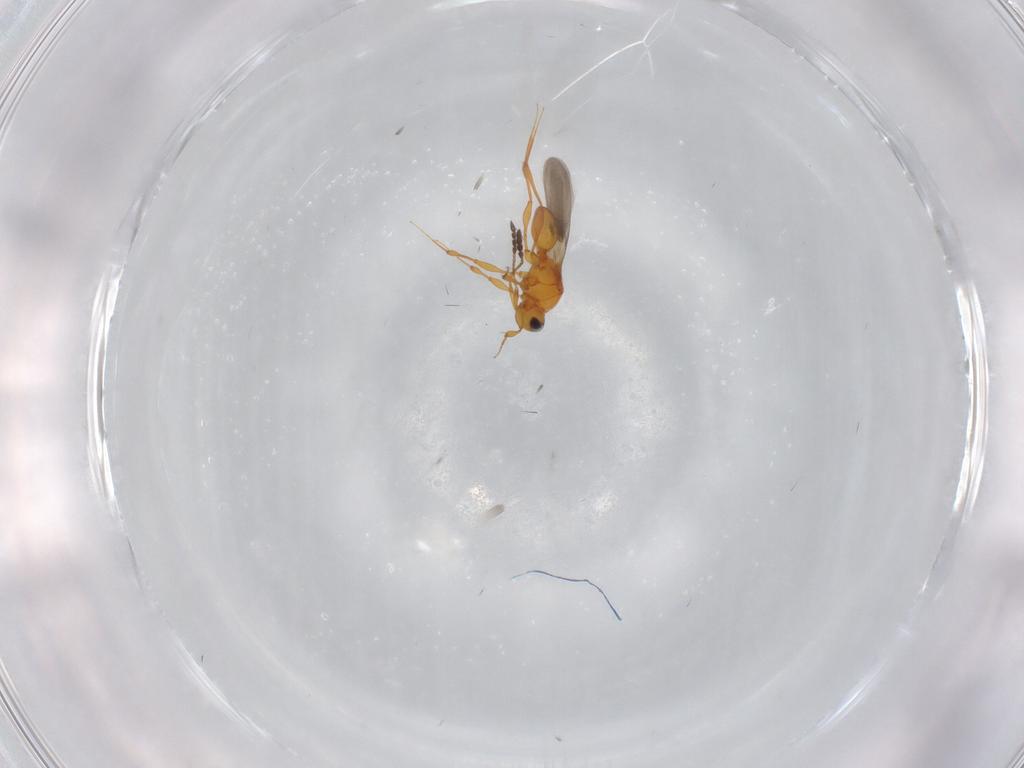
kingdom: Animalia
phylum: Arthropoda
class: Insecta
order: Hymenoptera
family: Platygastridae
